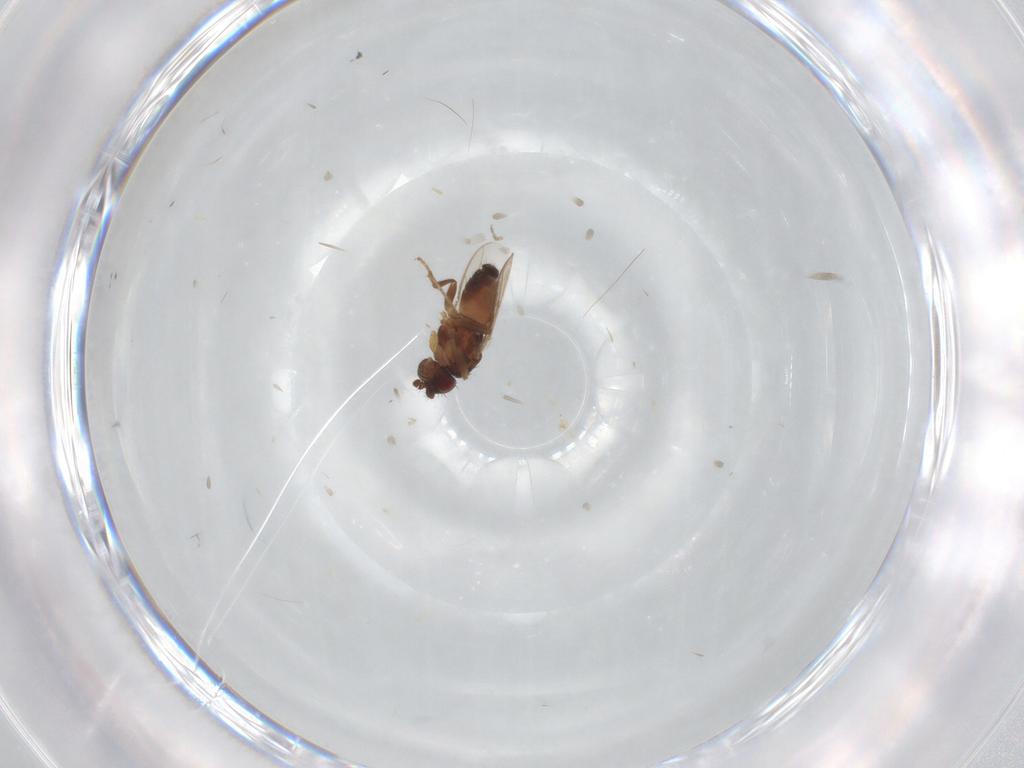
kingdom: Animalia
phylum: Arthropoda
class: Insecta
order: Diptera
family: Sphaeroceridae
